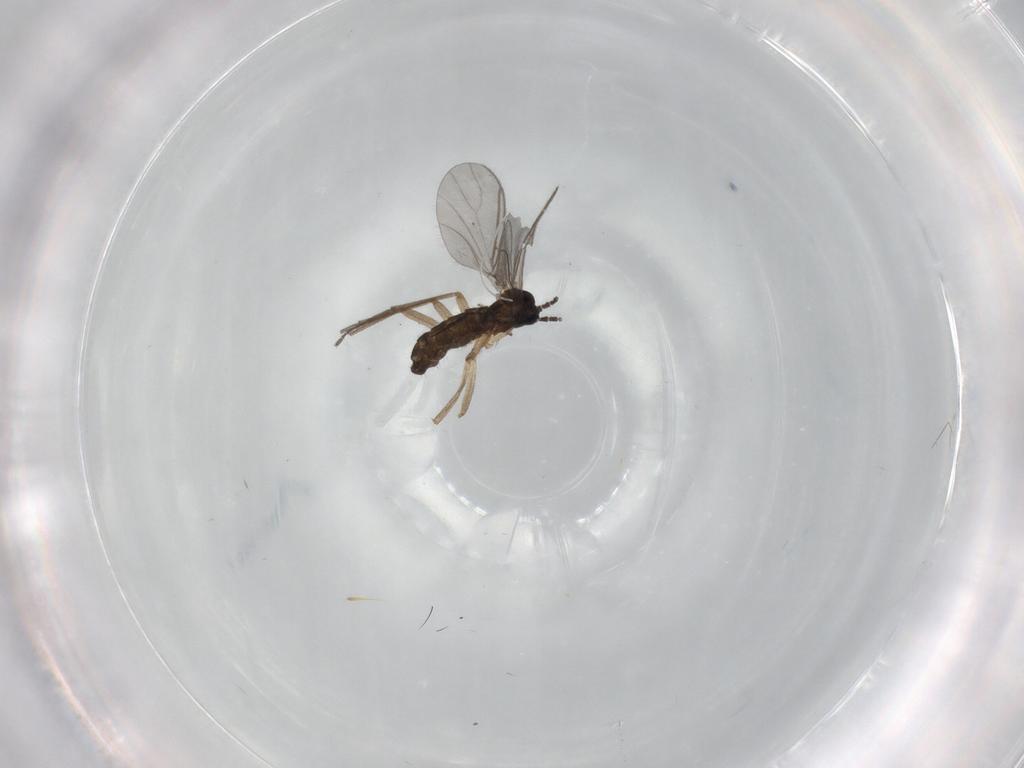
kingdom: Animalia
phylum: Arthropoda
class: Insecta
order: Diptera
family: Sciaridae
